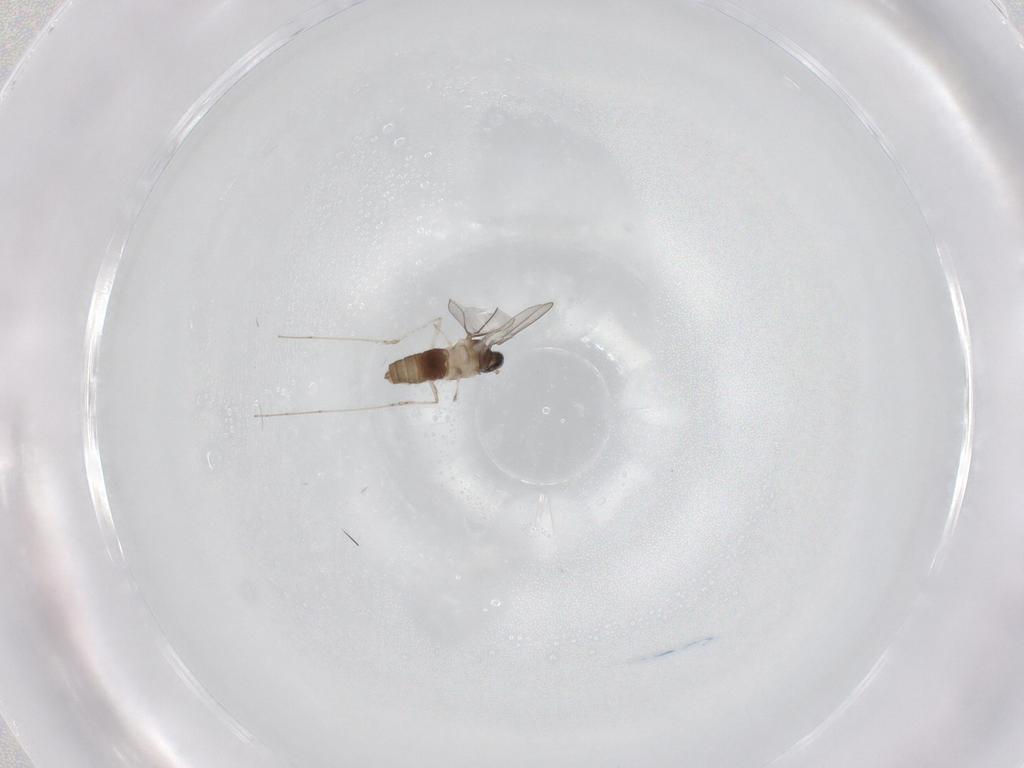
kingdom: Animalia
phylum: Arthropoda
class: Insecta
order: Diptera
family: Cecidomyiidae
